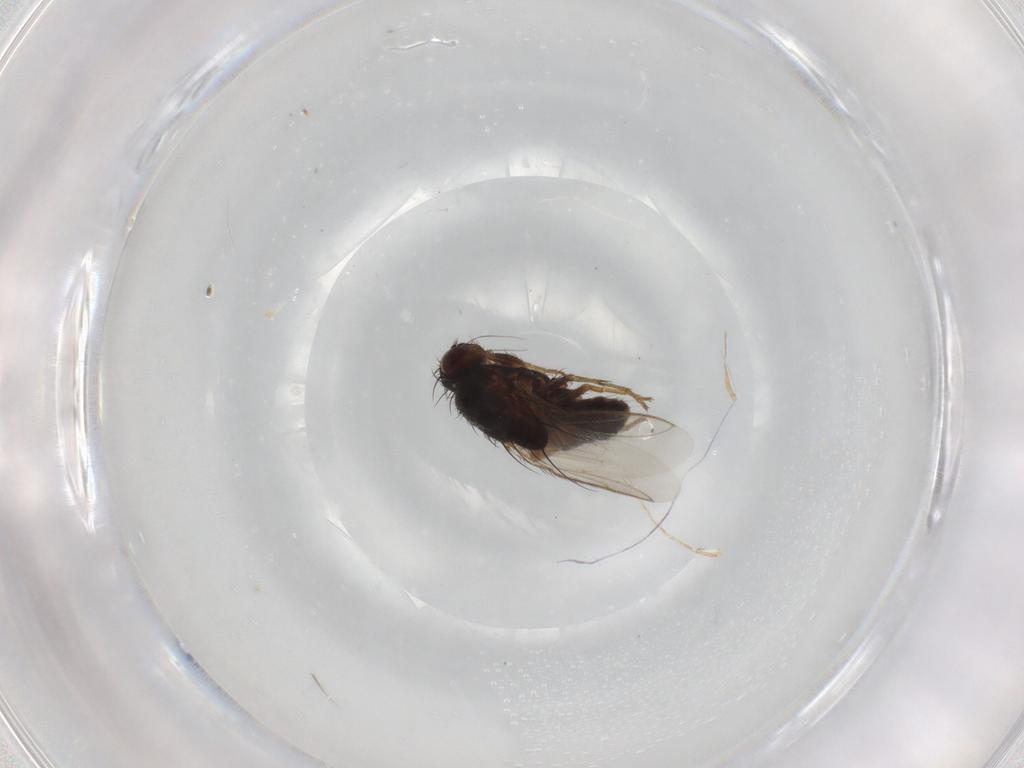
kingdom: Animalia
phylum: Arthropoda
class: Insecta
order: Diptera
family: Sphaeroceridae
